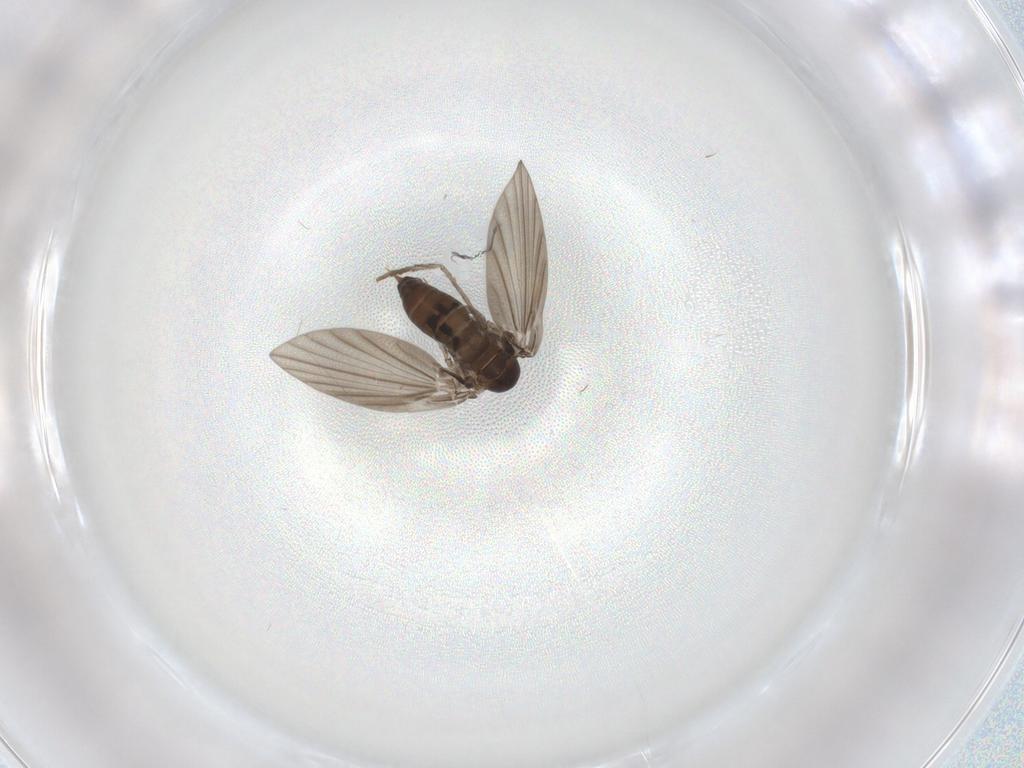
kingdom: Animalia
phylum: Arthropoda
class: Insecta
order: Diptera
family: Psychodidae
